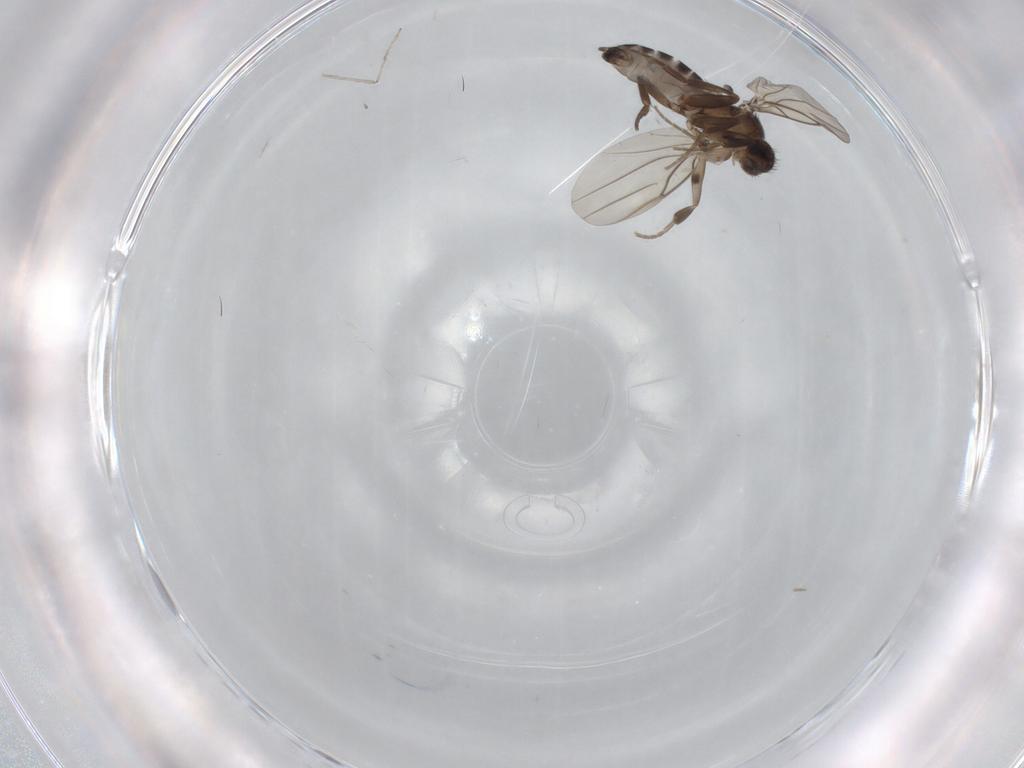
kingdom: Animalia
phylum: Arthropoda
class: Insecta
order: Diptera
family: Phoridae
